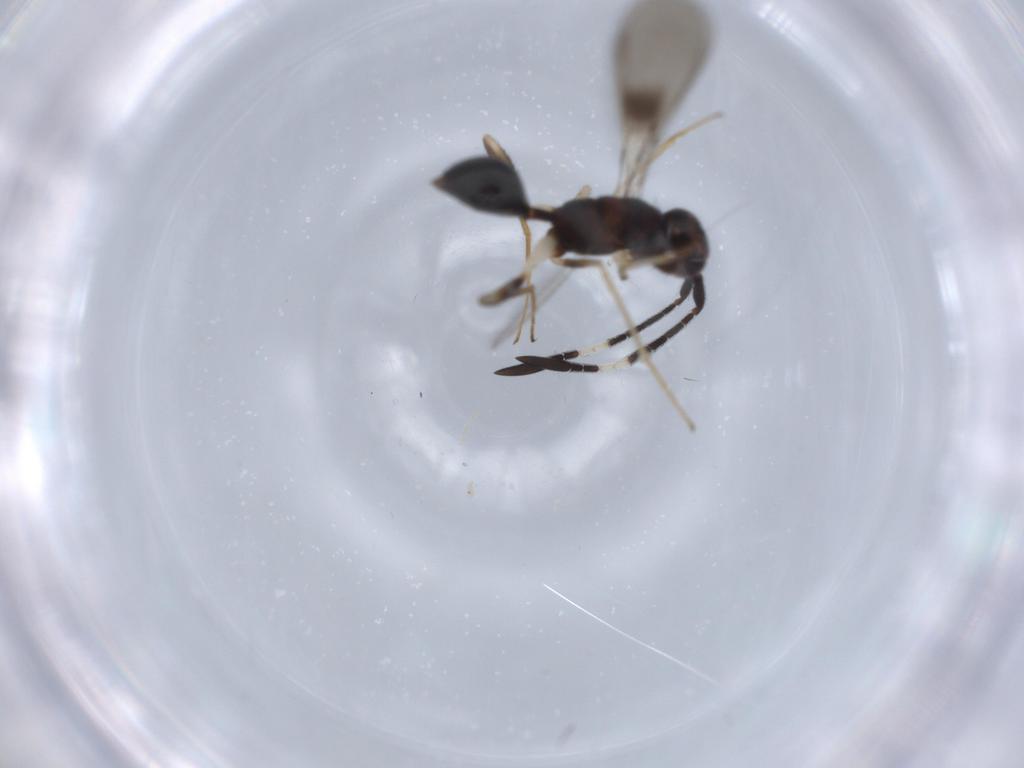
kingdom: Animalia
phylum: Arthropoda
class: Insecta
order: Hymenoptera
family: Mymaridae
